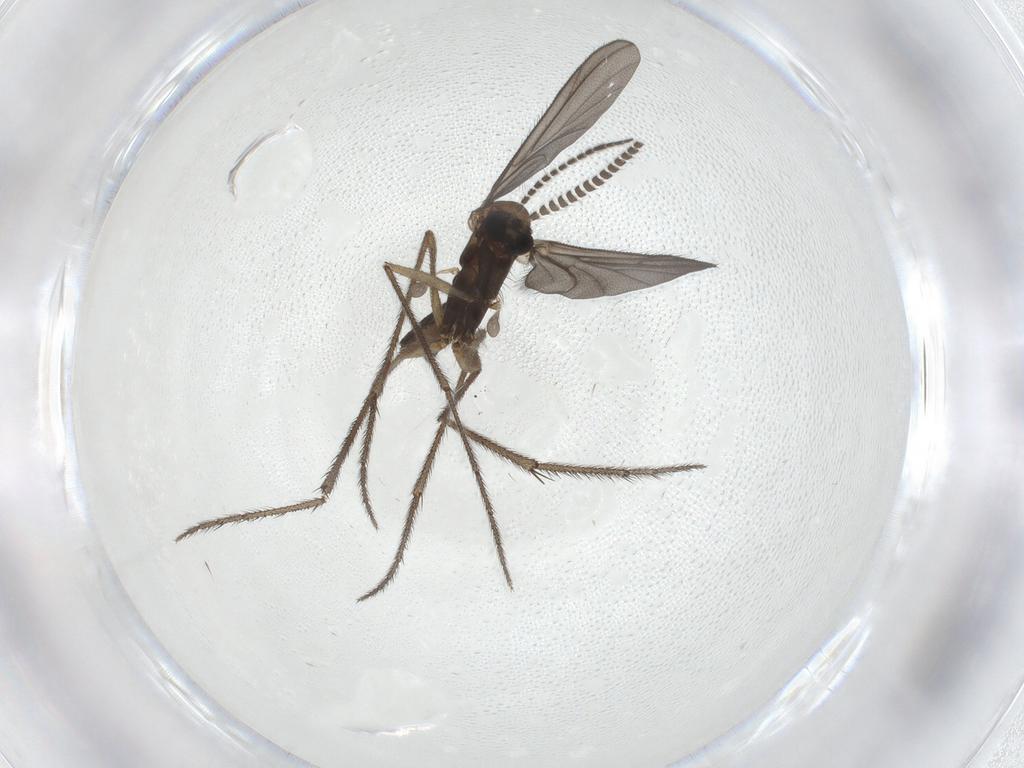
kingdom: Animalia
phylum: Arthropoda
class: Insecta
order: Diptera
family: Ditomyiidae
